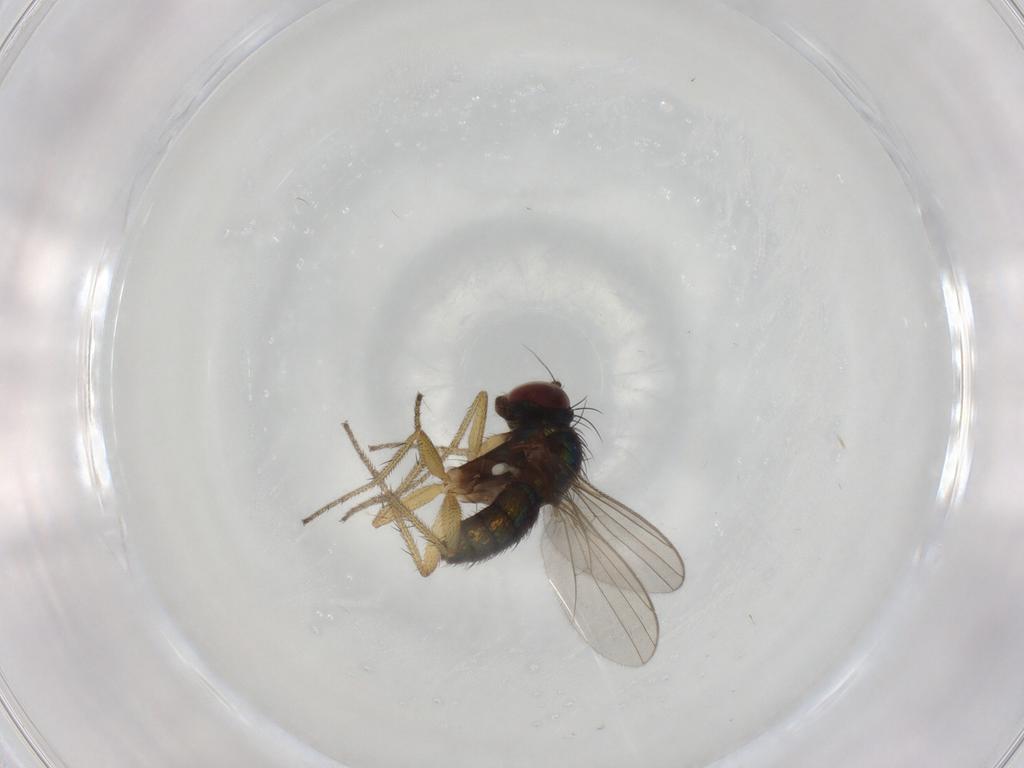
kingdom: Animalia
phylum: Arthropoda
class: Insecta
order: Diptera
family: Dolichopodidae
